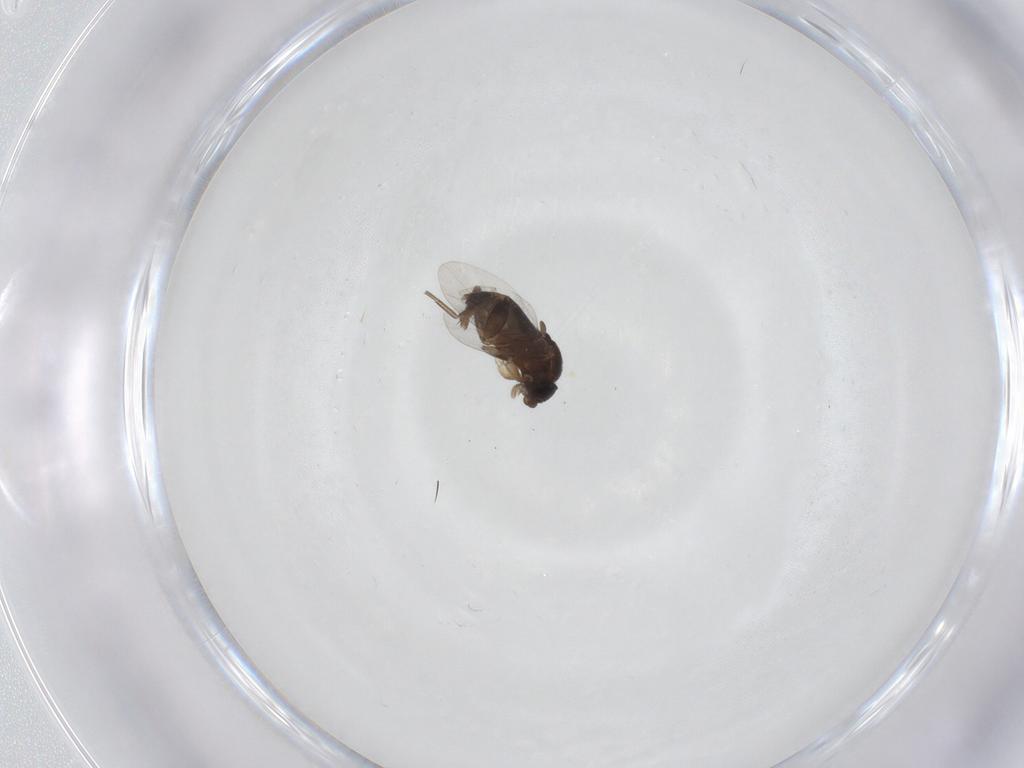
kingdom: Animalia
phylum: Arthropoda
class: Insecta
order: Diptera
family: Phoridae
